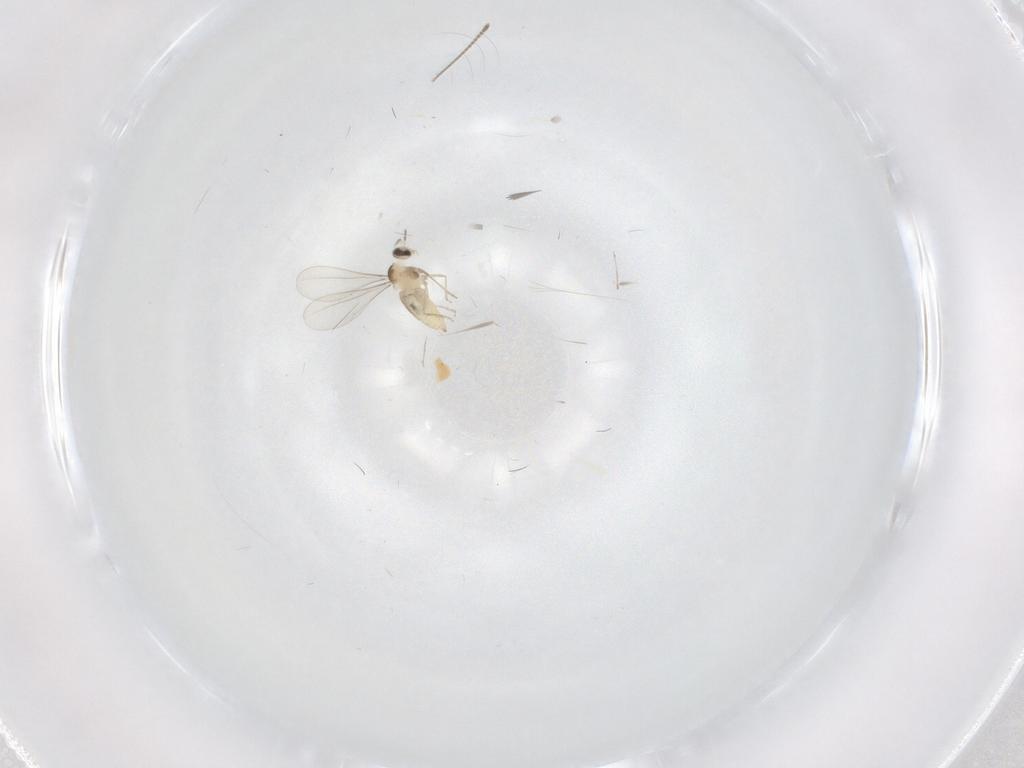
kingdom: Animalia
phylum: Arthropoda
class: Insecta
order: Diptera
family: Cecidomyiidae
